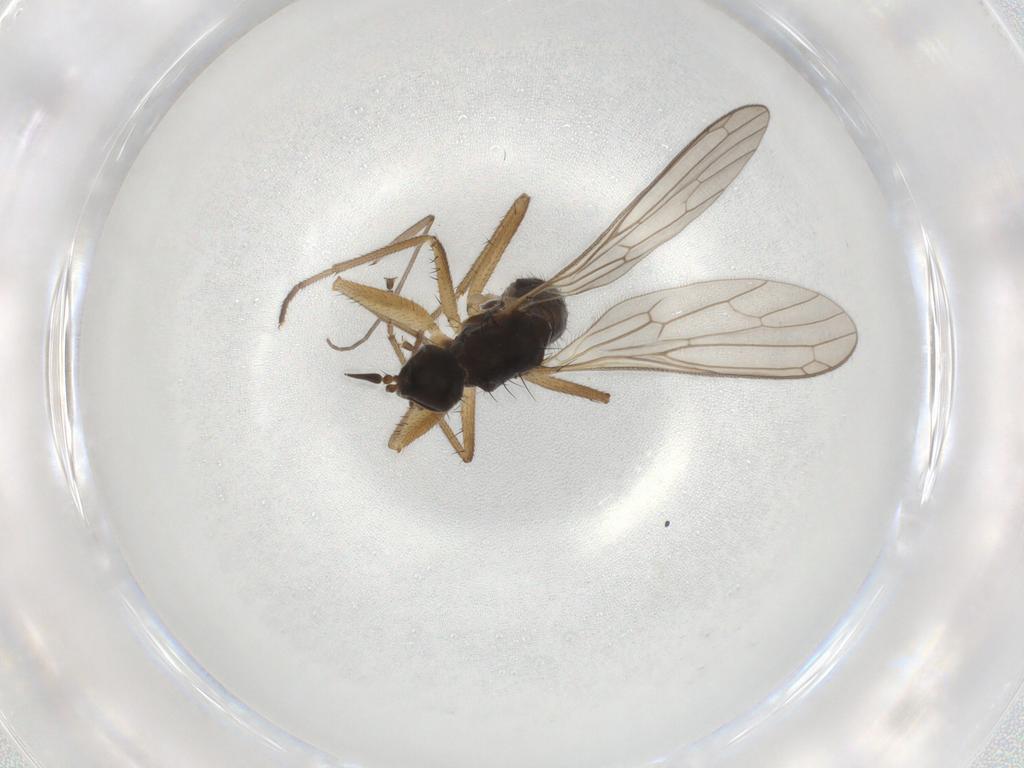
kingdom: Animalia
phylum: Arthropoda
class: Insecta
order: Diptera
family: Empididae
